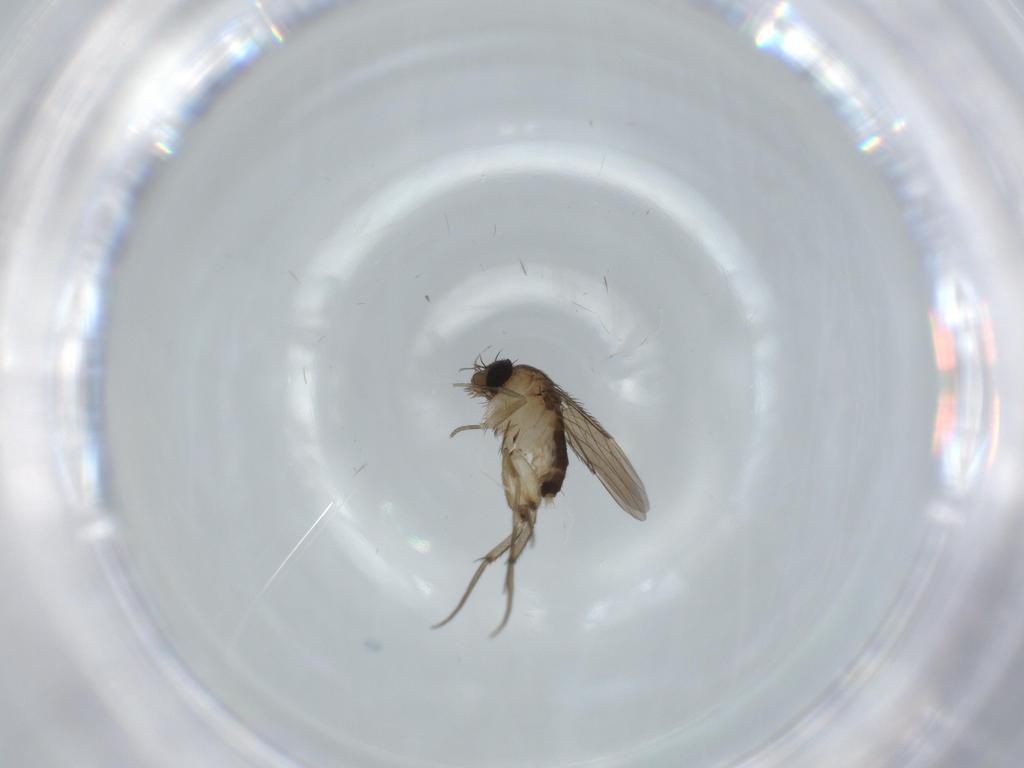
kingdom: Animalia
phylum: Arthropoda
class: Insecta
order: Diptera
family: Phoridae
